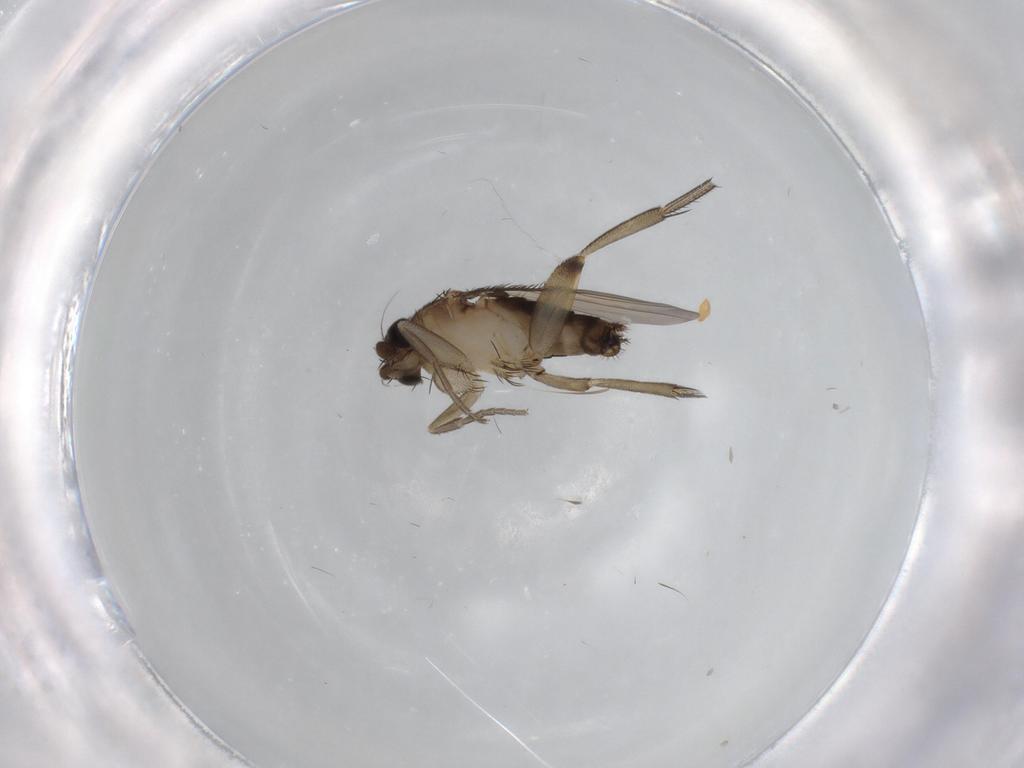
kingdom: Animalia
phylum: Arthropoda
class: Insecta
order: Diptera
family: Phoridae
